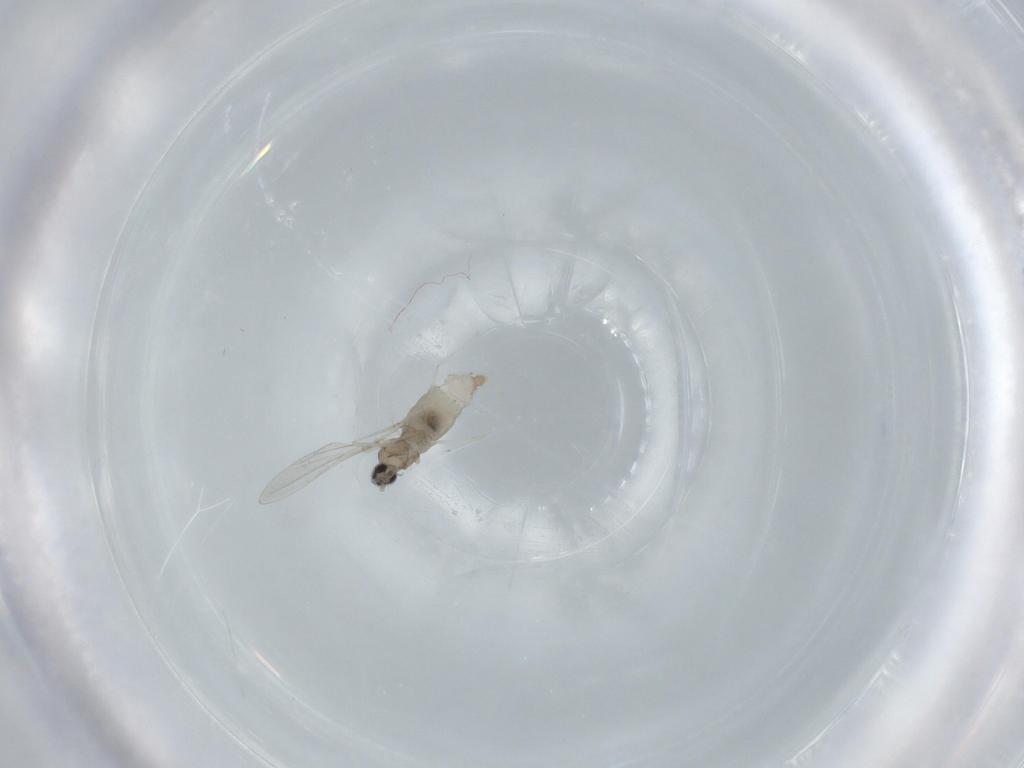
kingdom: Animalia
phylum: Arthropoda
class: Insecta
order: Diptera
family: Cecidomyiidae
